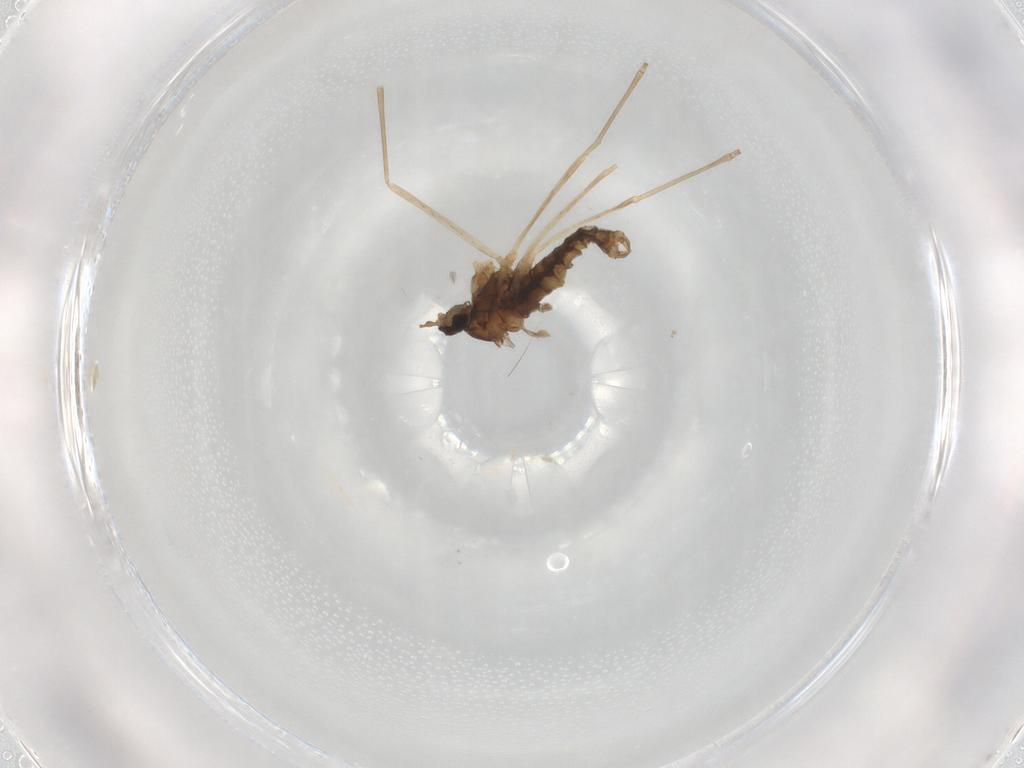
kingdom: Animalia
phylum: Arthropoda
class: Insecta
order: Diptera
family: Cecidomyiidae
